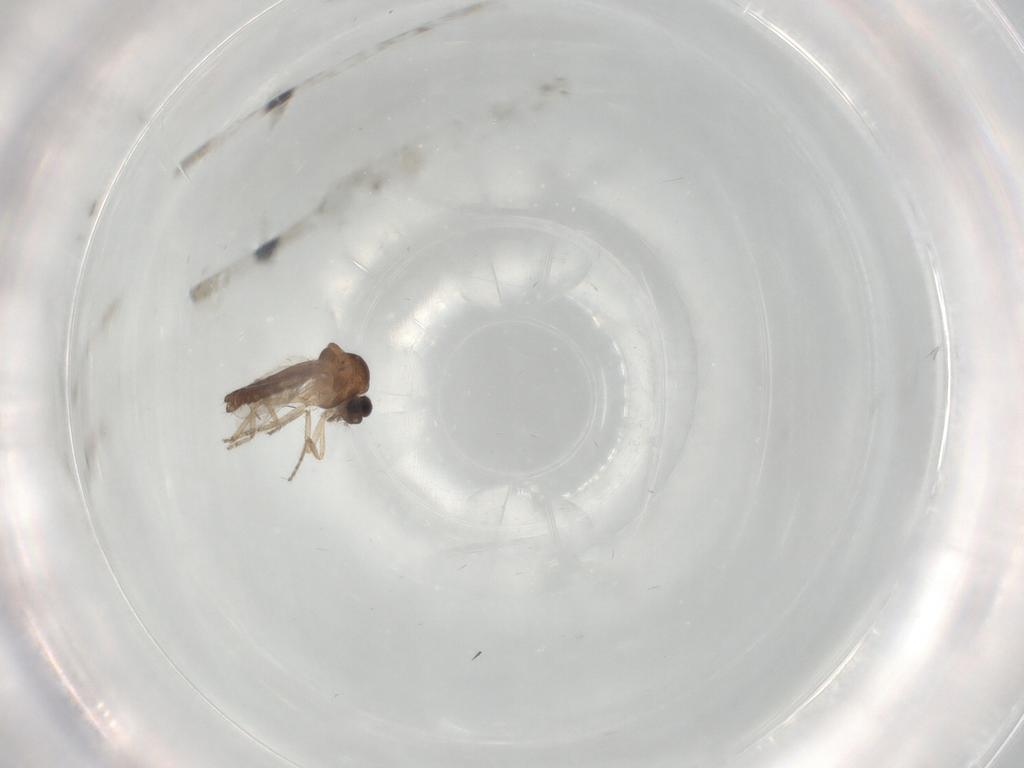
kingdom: Animalia
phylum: Arthropoda
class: Insecta
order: Diptera
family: Ceratopogonidae
